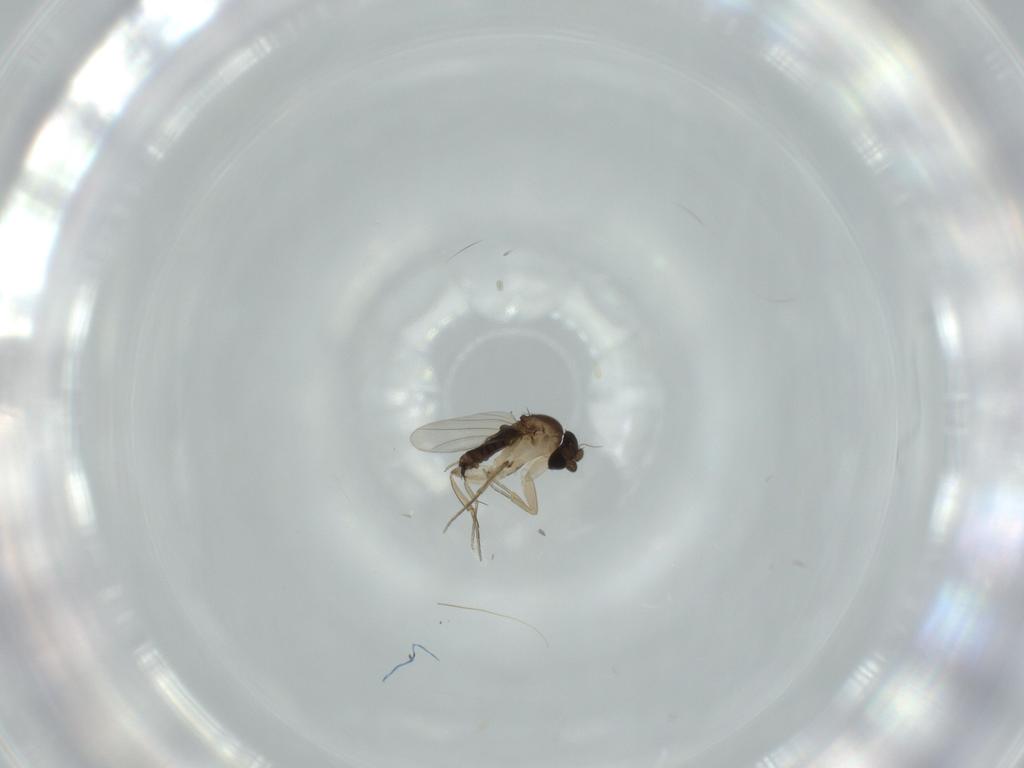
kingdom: Animalia
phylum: Arthropoda
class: Insecta
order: Diptera
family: Phoridae
